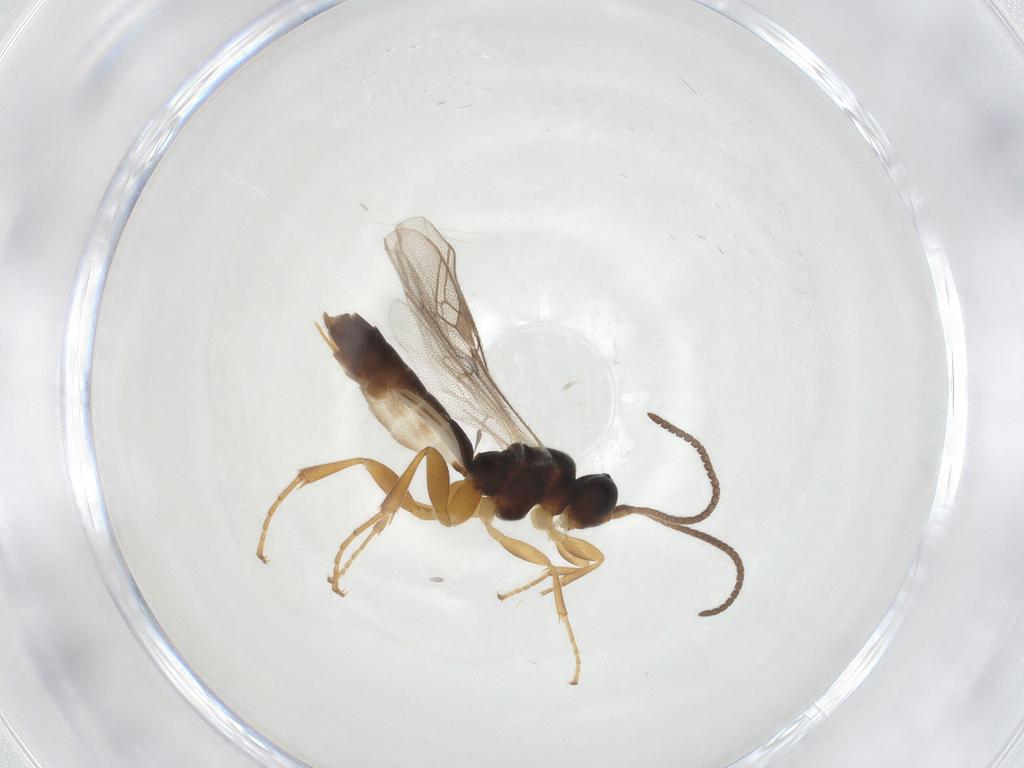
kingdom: Animalia
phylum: Arthropoda
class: Insecta
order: Hymenoptera
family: Ichneumonidae
